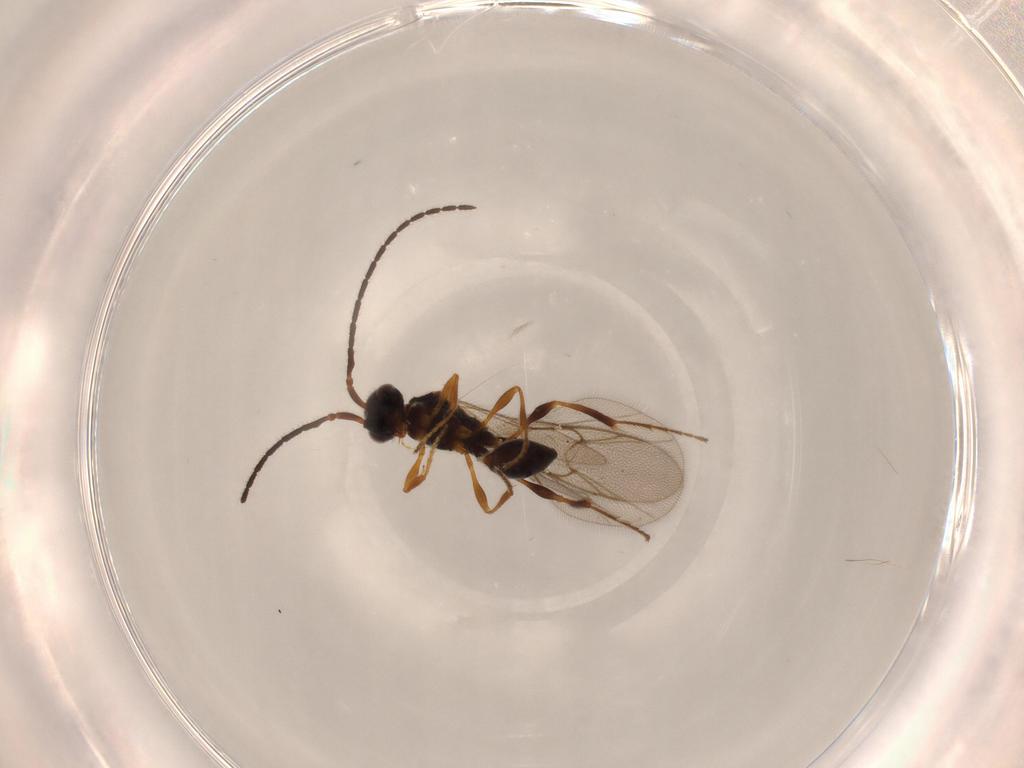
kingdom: Animalia
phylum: Arthropoda
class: Insecta
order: Hymenoptera
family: Diapriidae
